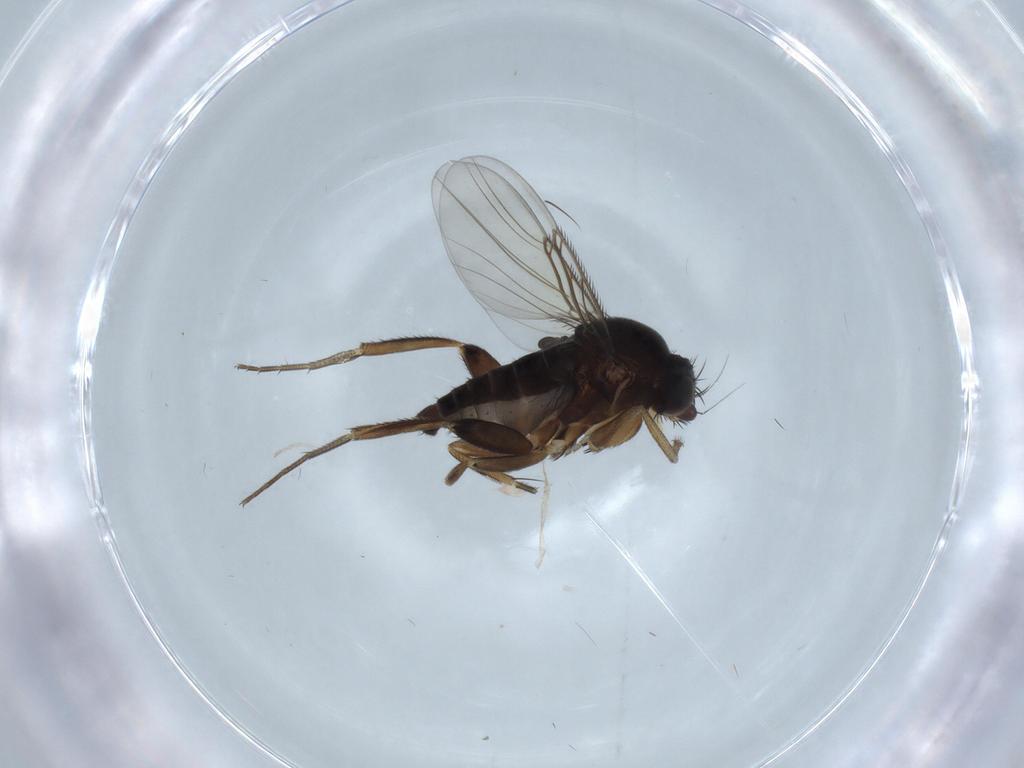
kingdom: Animalia
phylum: Arthropoda
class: Insecta
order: Diptera
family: Phoridae
